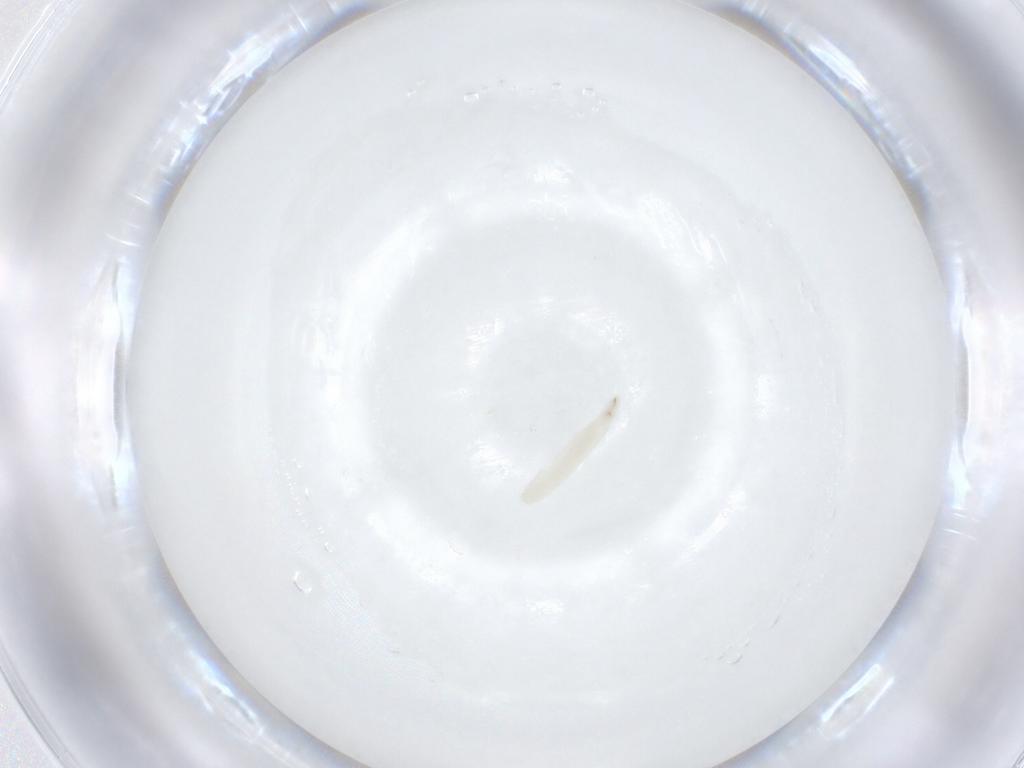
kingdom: Animalia
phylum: Arthropoda
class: Insecta
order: Diptera
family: Sarcophagidae
